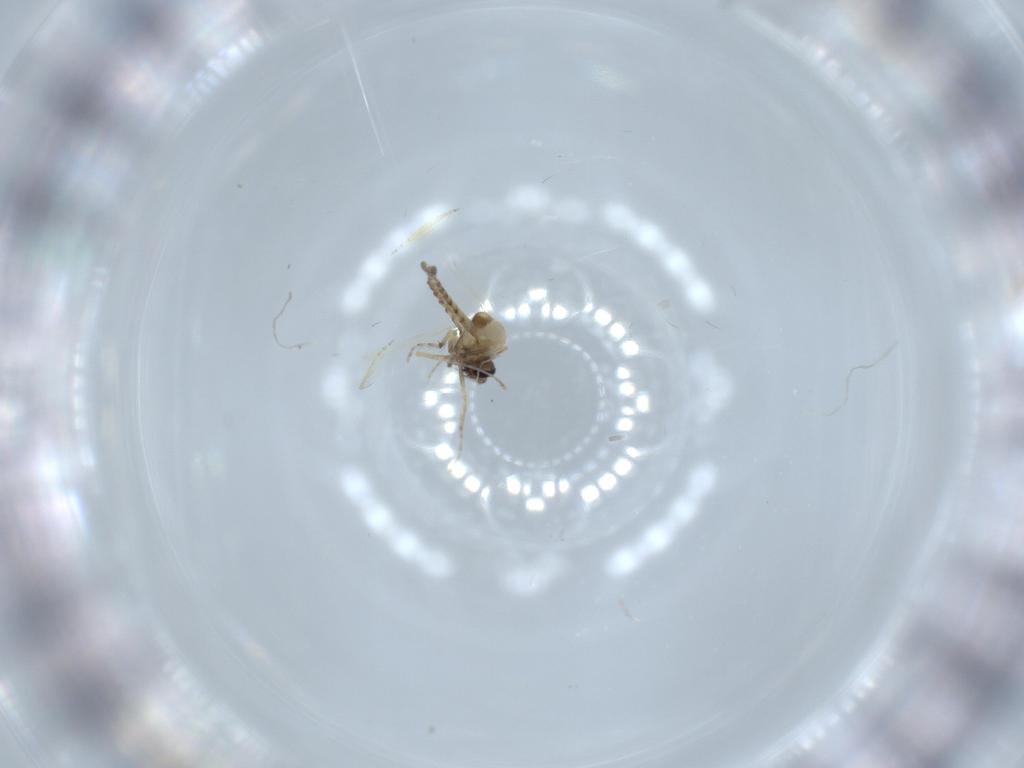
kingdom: Animalia
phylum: Arthropoda
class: Insecta
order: Diptera
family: Ceratopogonidae
